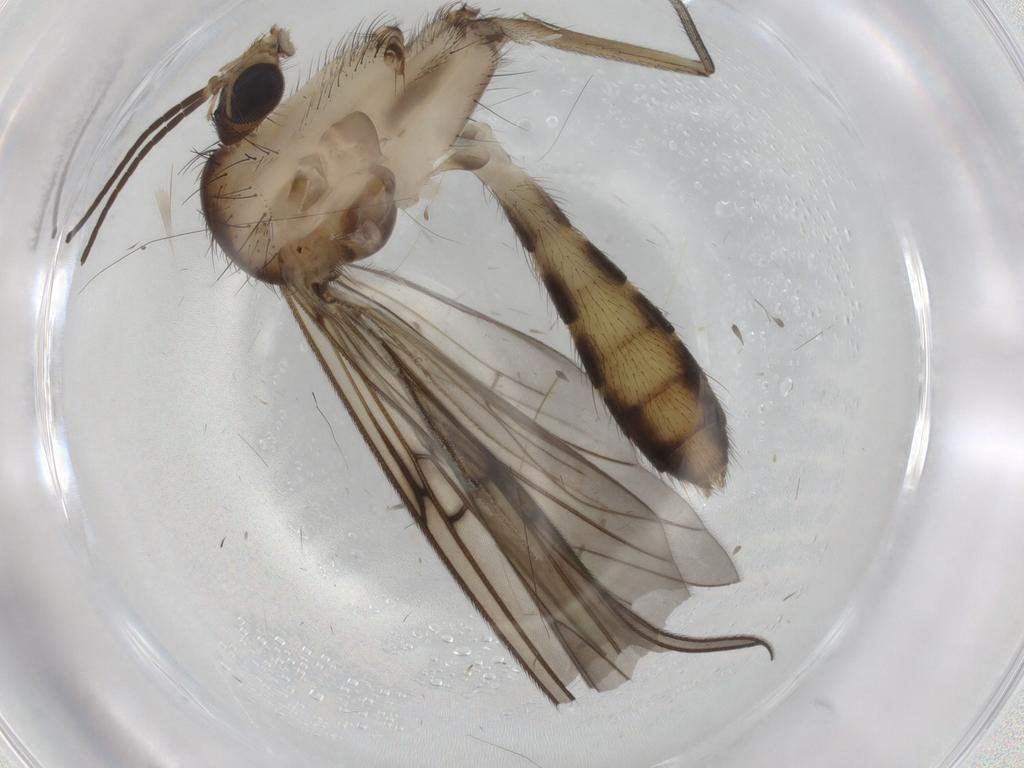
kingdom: Animalia
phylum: Arthropoda
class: Insecta
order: Diptera
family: Mycetophilidae
